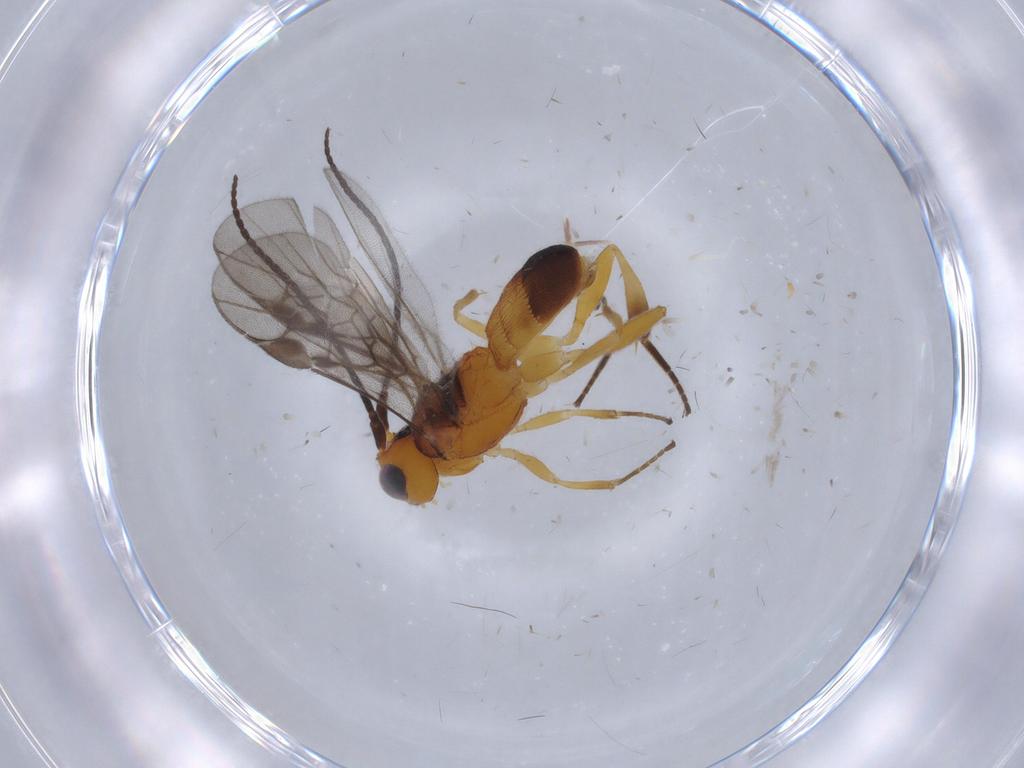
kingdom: Animalia
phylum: Arthropoda
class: Insecta
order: Hymenoptera
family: Braconidae
